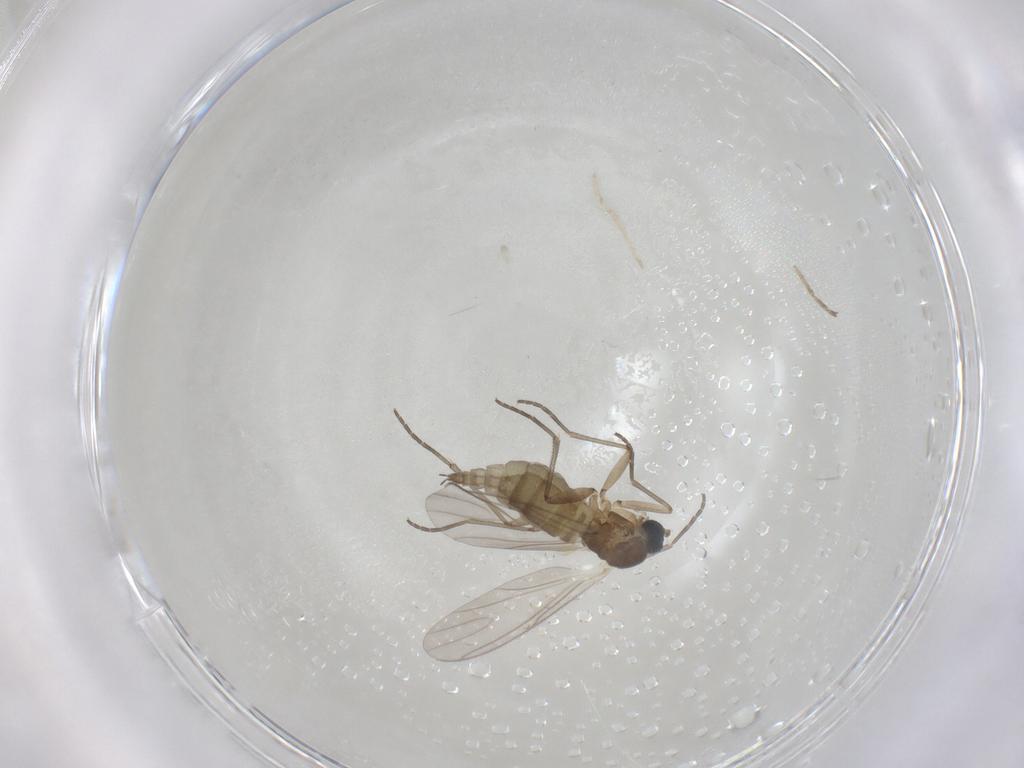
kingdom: Animalia
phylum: Arthropoda
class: Insecta
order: Diptera
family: Cecidomyiidae
